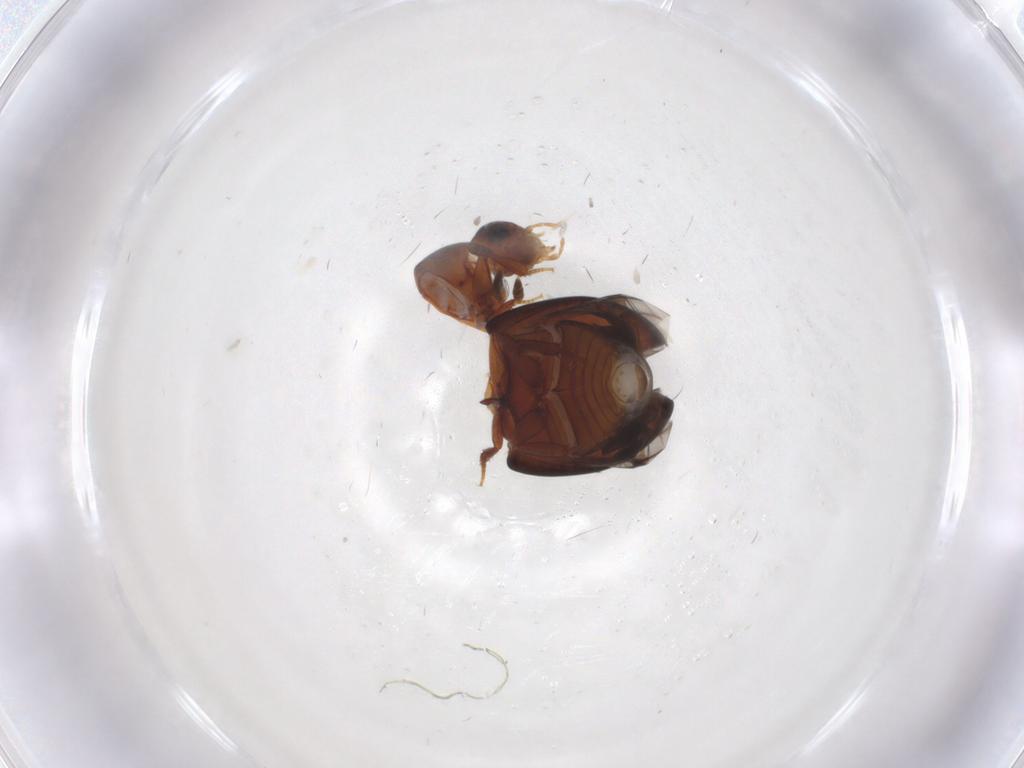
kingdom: Animalia
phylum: Arthropoda
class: Insecta
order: Coleoptera
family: Hydrophilidae
